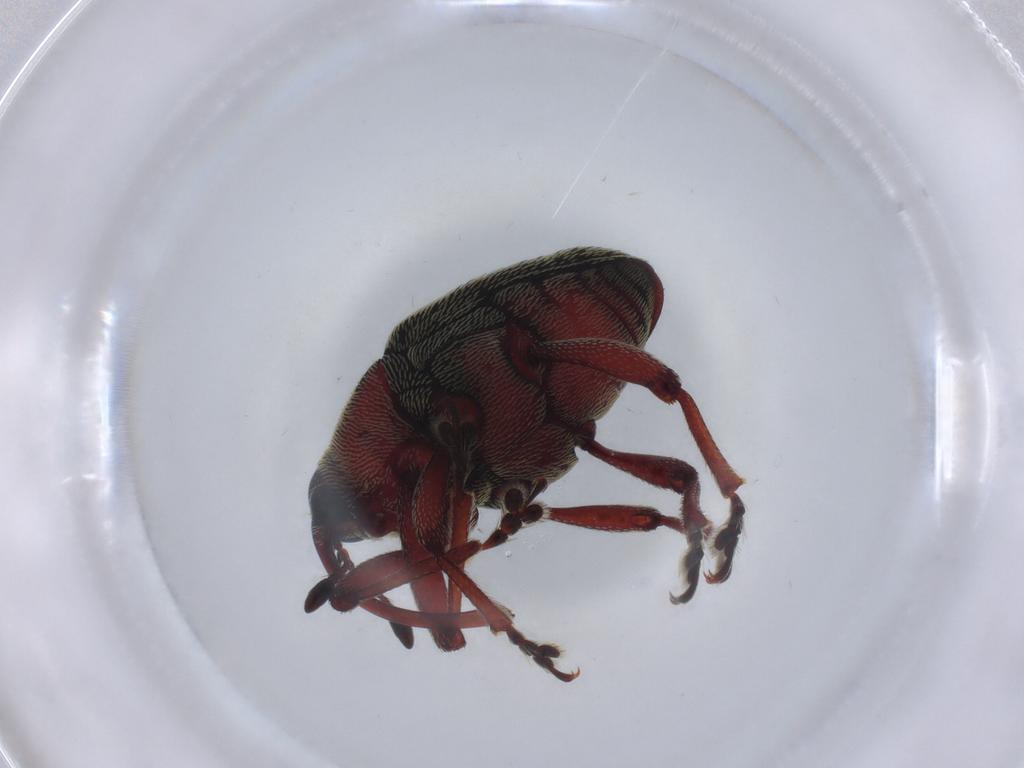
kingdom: Animalia
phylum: Arthropoda
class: Insecta
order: Coleoptera
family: Curculionidae
